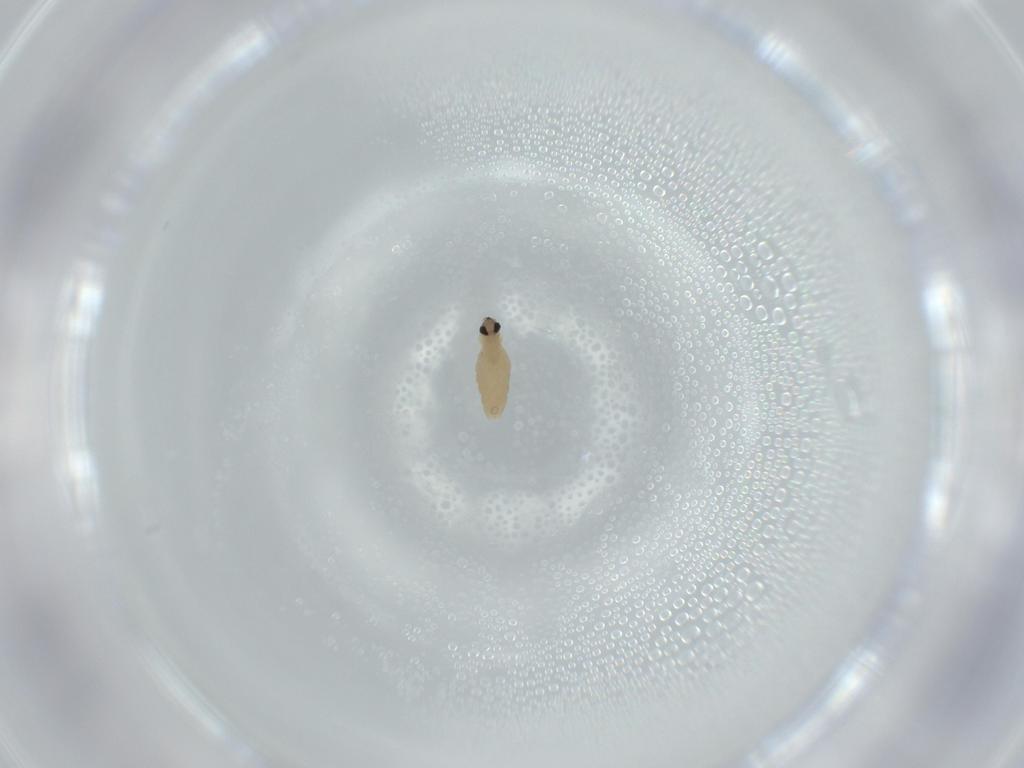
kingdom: Animalia
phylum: Arthropoda
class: Insecta
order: Diptera
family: Cecidomyiidae
